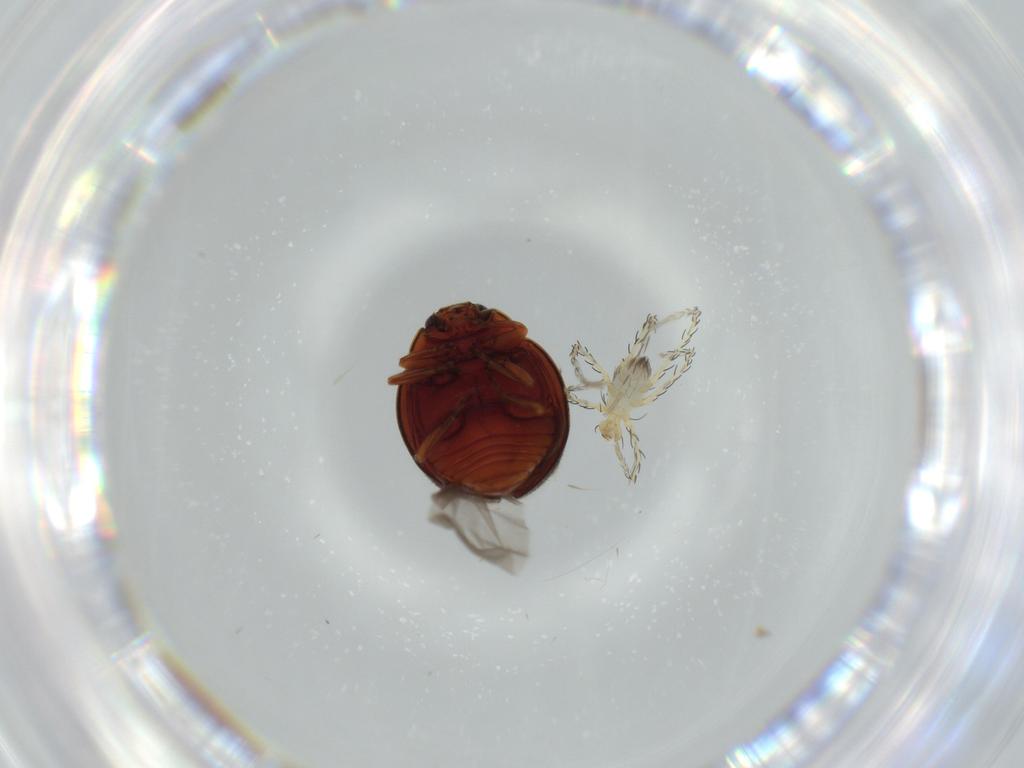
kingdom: Animalia
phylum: Arthropoda
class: Insecta
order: Coleoptera
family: Coccinellidae
